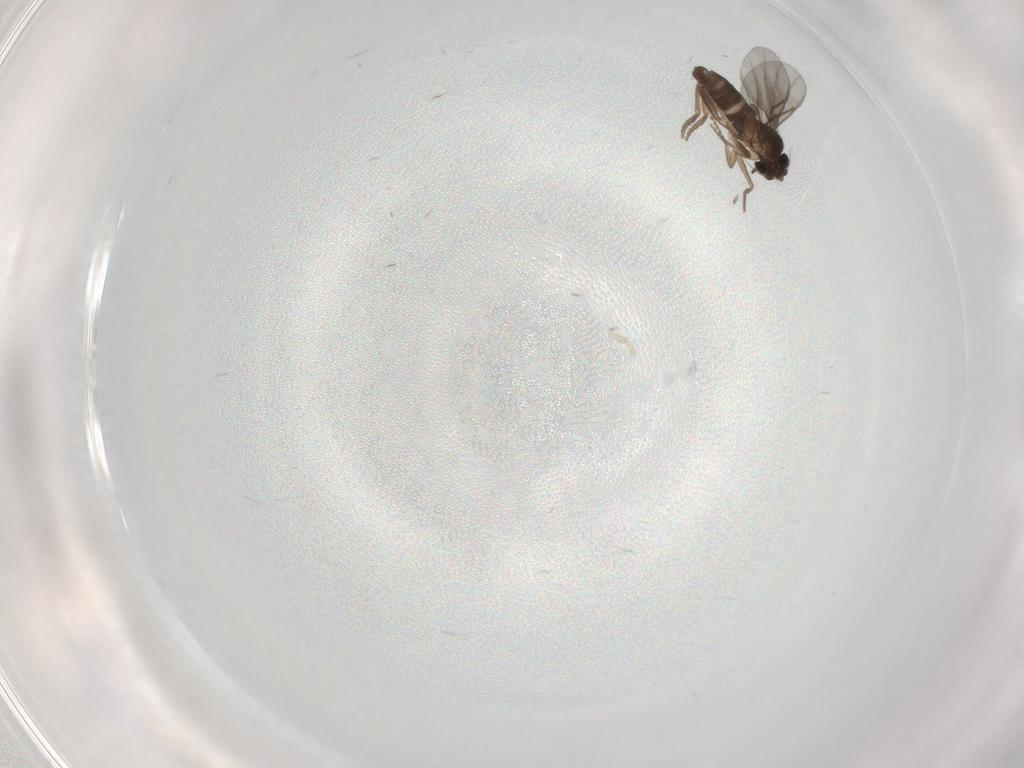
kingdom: Animalia
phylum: Arthropoda
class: Insecta
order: Diptera
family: Phoridae
